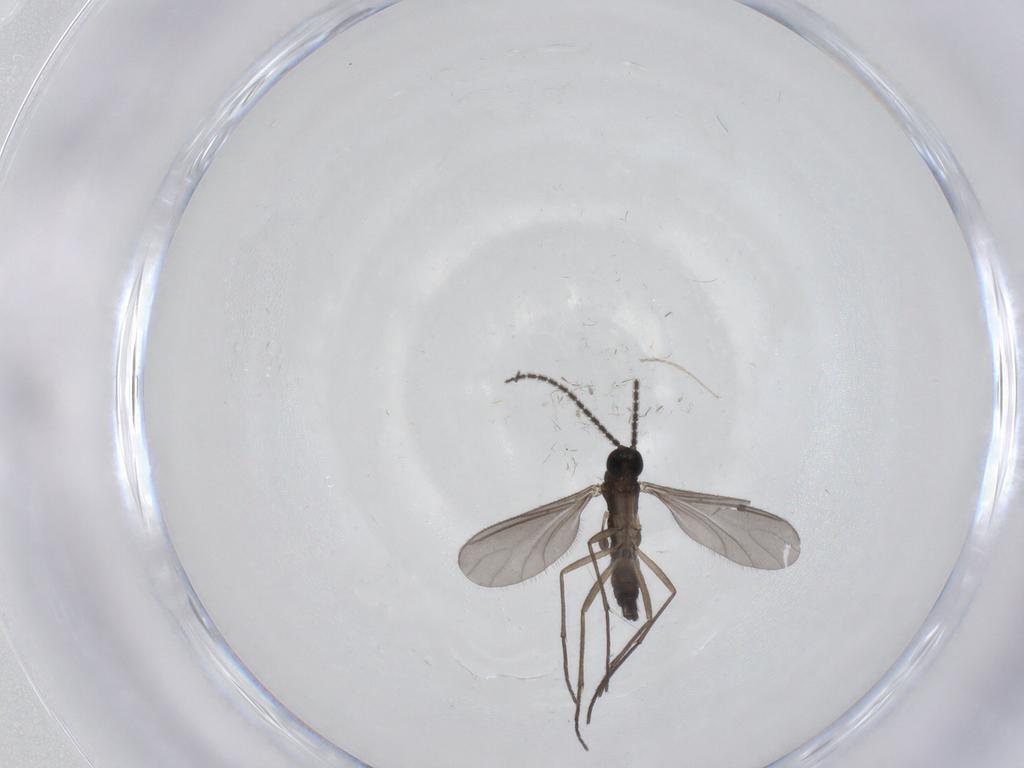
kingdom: Animalia
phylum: Arthropoda
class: Insecta
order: Diptera
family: Sciaridae
